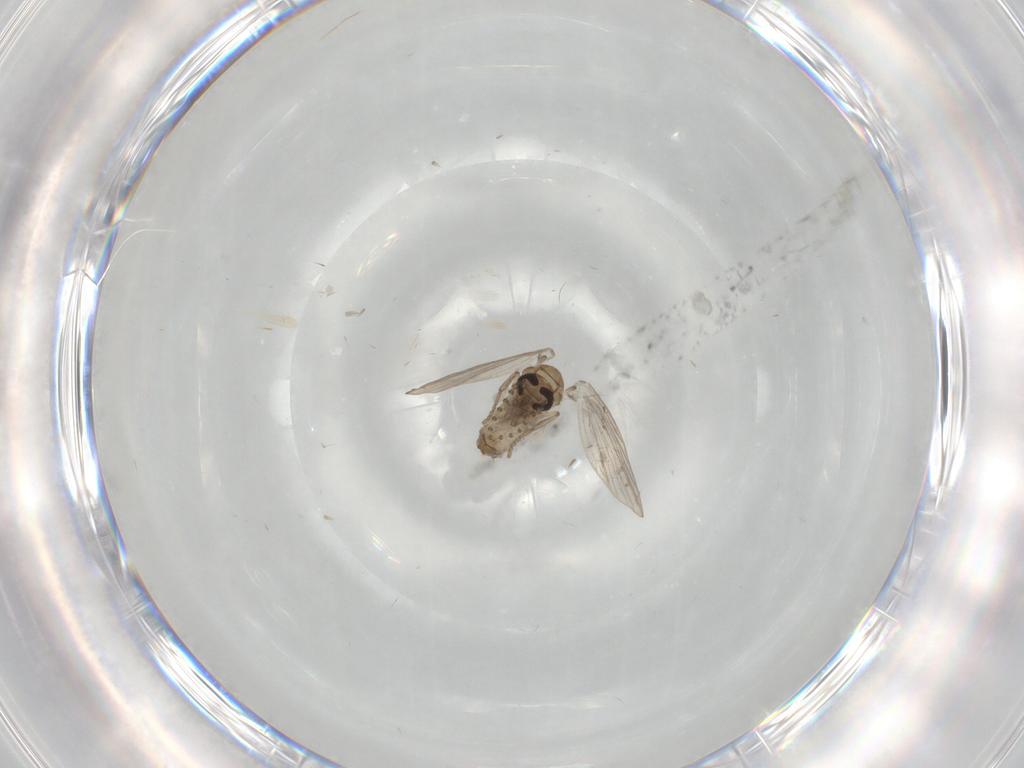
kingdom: Animalia
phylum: Arthropoda
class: Insecta
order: Diptera
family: Psychodidae
